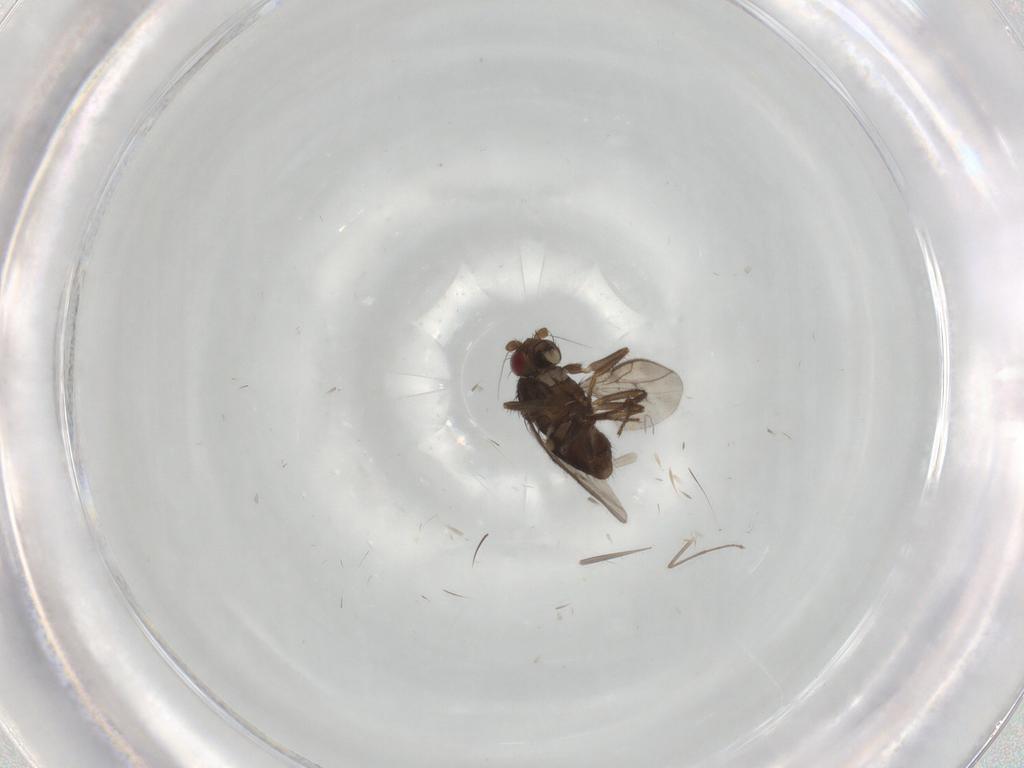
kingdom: Animalia
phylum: Arthropoda
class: Insecta
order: Diptera
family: Sphaeroceridae
